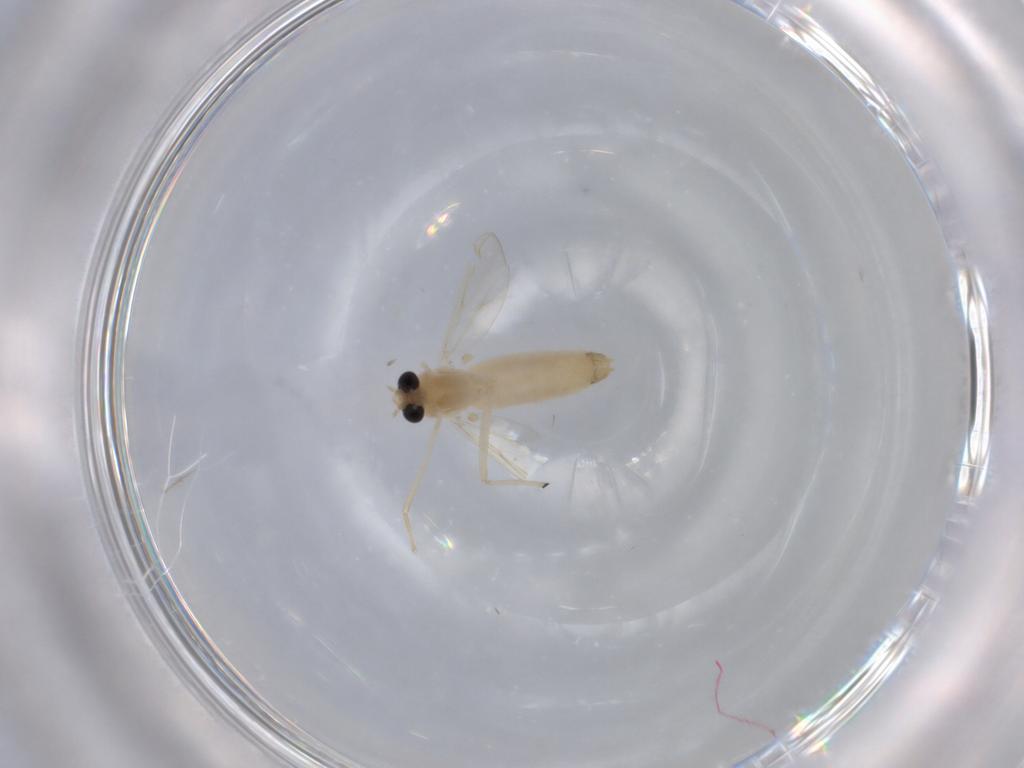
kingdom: Animalia
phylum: Arthropoda
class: Insecta
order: Diptera
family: Chironomidae
